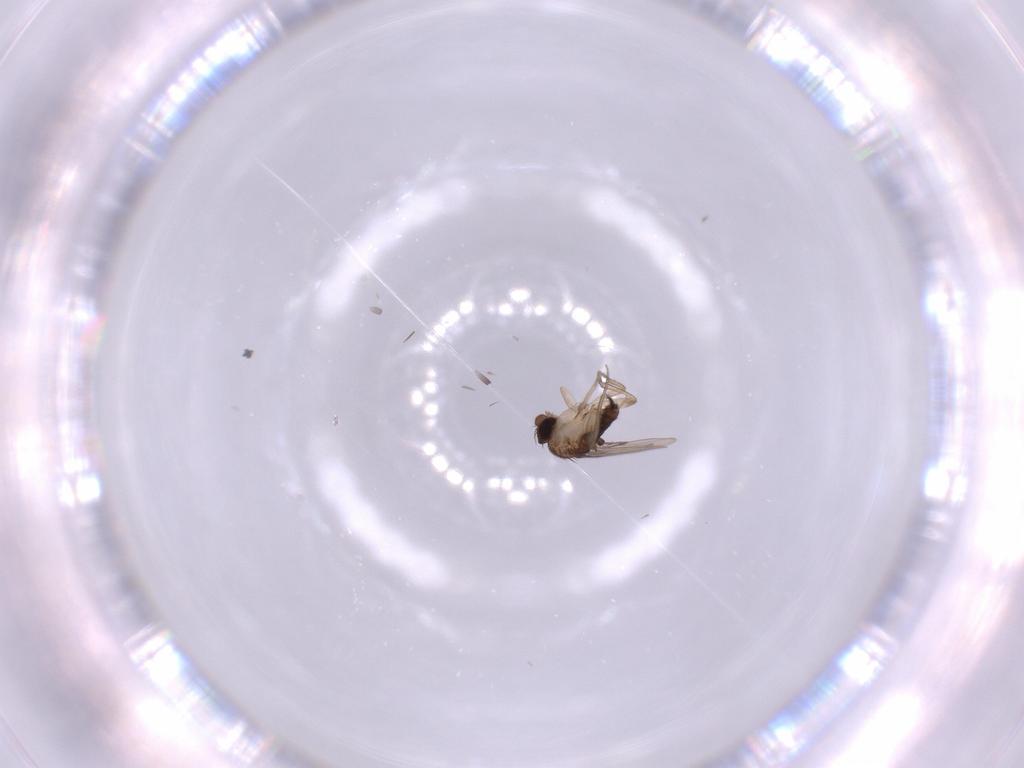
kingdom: Animalia
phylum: Arthropoda
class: Insecta
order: Diptera
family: Phoridae
